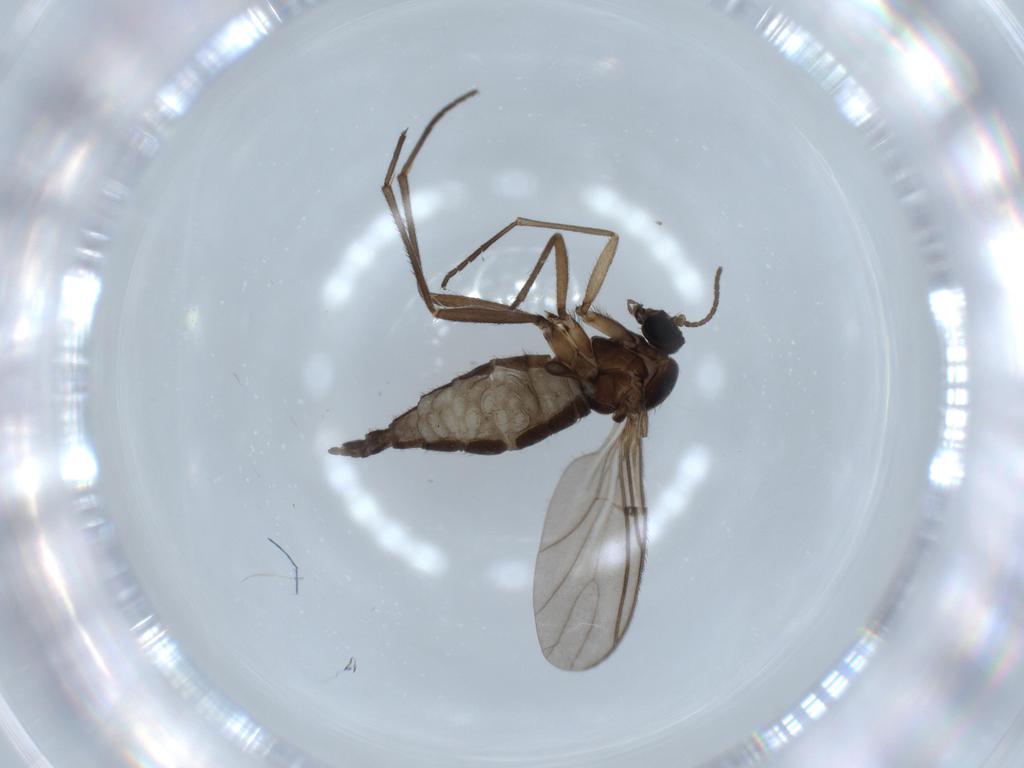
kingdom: Animalia
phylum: Arthropoda
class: Insecta
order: Diptera
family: Sciaridae
